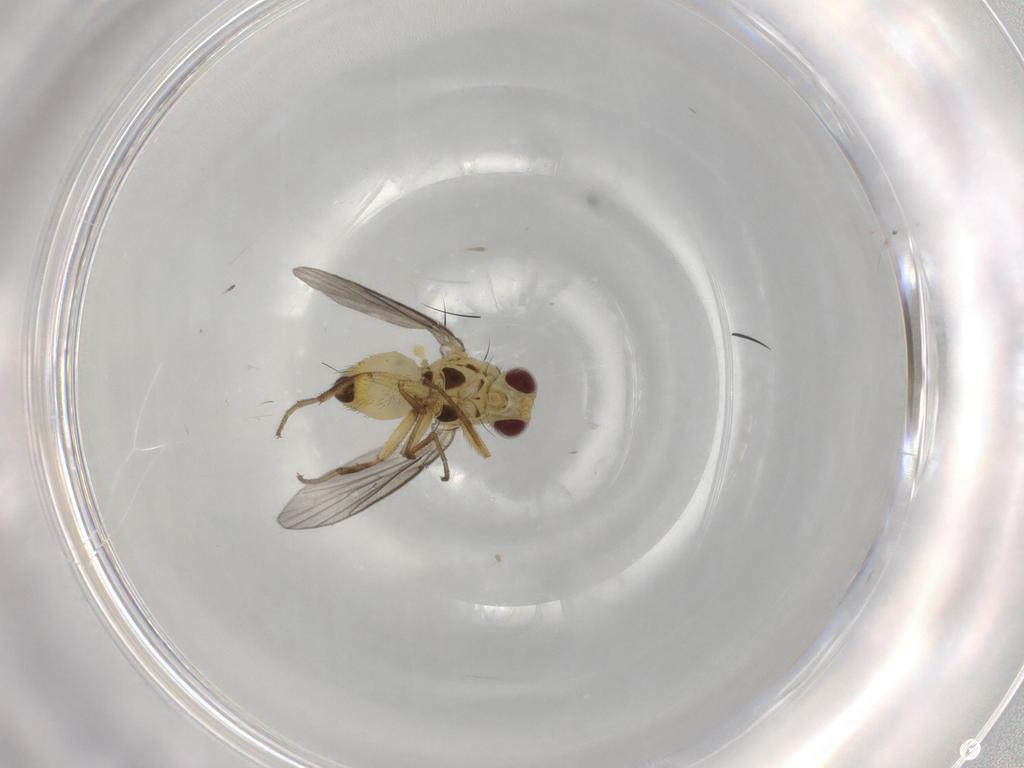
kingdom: Animalia
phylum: Arthropoda
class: Insecta
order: Diptera
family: Agromyzidae
